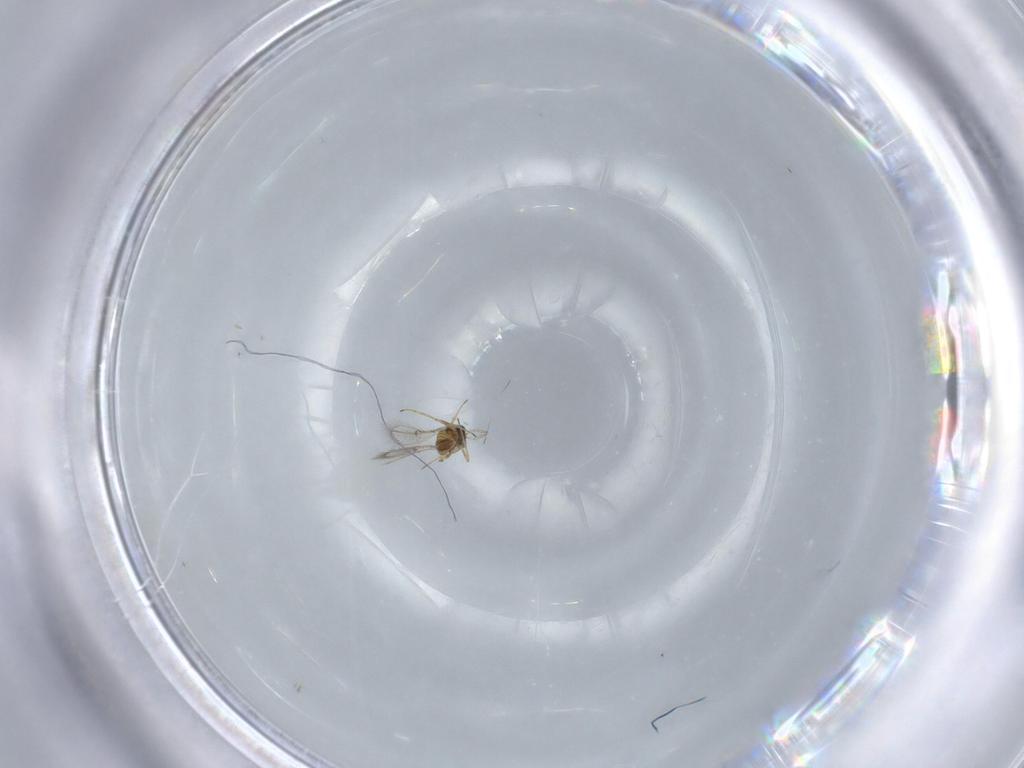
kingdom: Animalia
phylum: Arthropoda
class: Insecta
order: Hymenoptera
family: Trichogrammatidae
